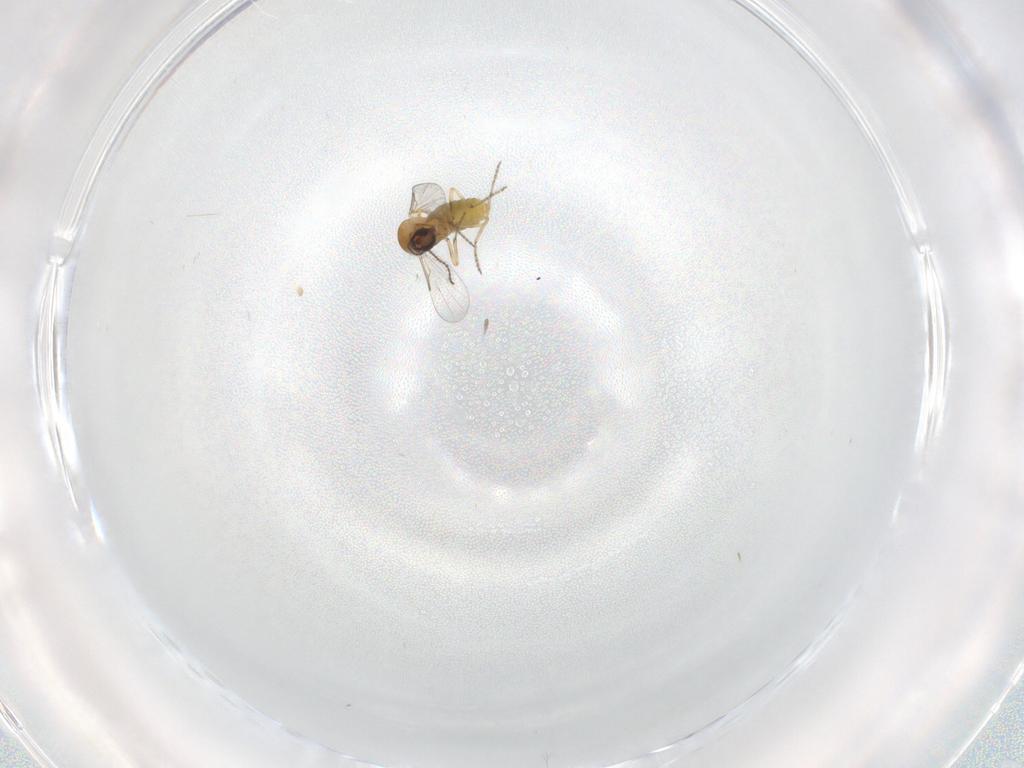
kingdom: Animalia
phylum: Arthropoda
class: Insecta
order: Diptera
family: Ceratopogonidae
